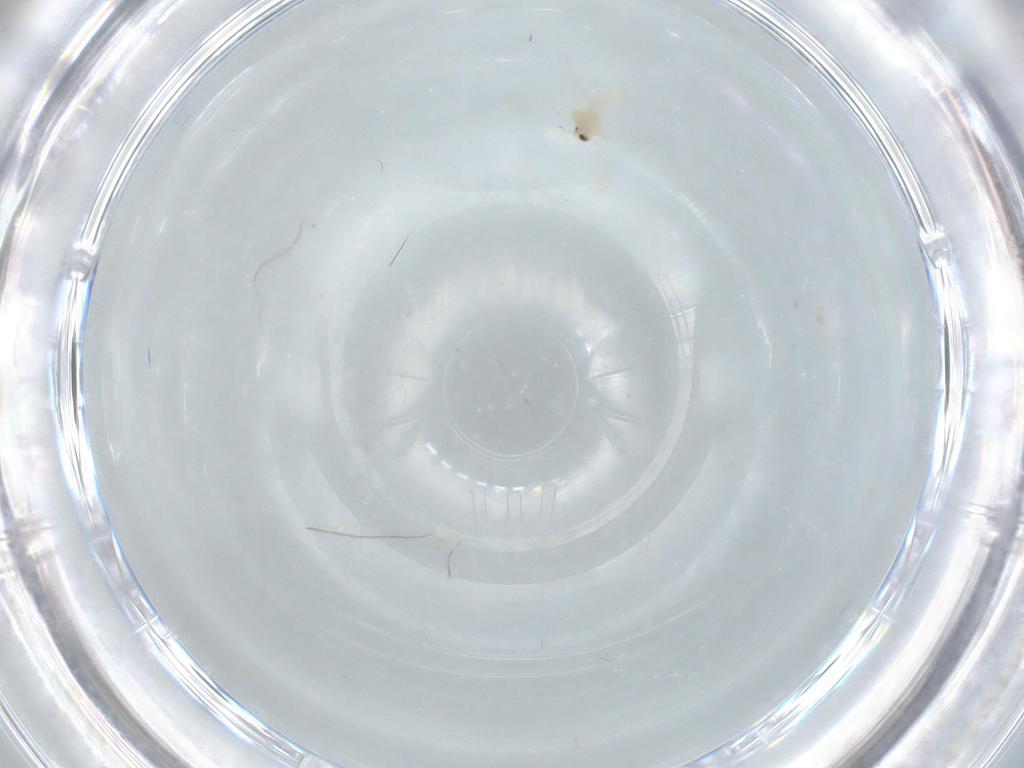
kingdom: Animalia
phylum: Arthropoda
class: Insecta
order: Hemiptera
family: Aleyrodidae
